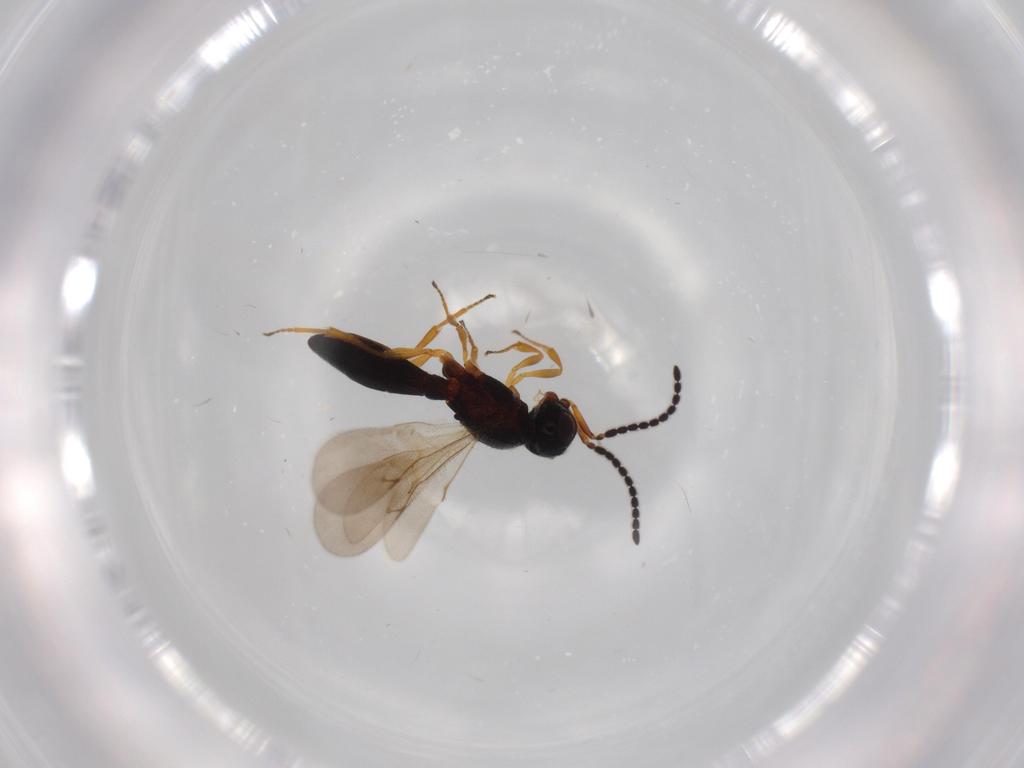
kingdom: Animalia
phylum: Arthropoda
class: Insecta
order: Hymenoptera
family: Scelionidae
